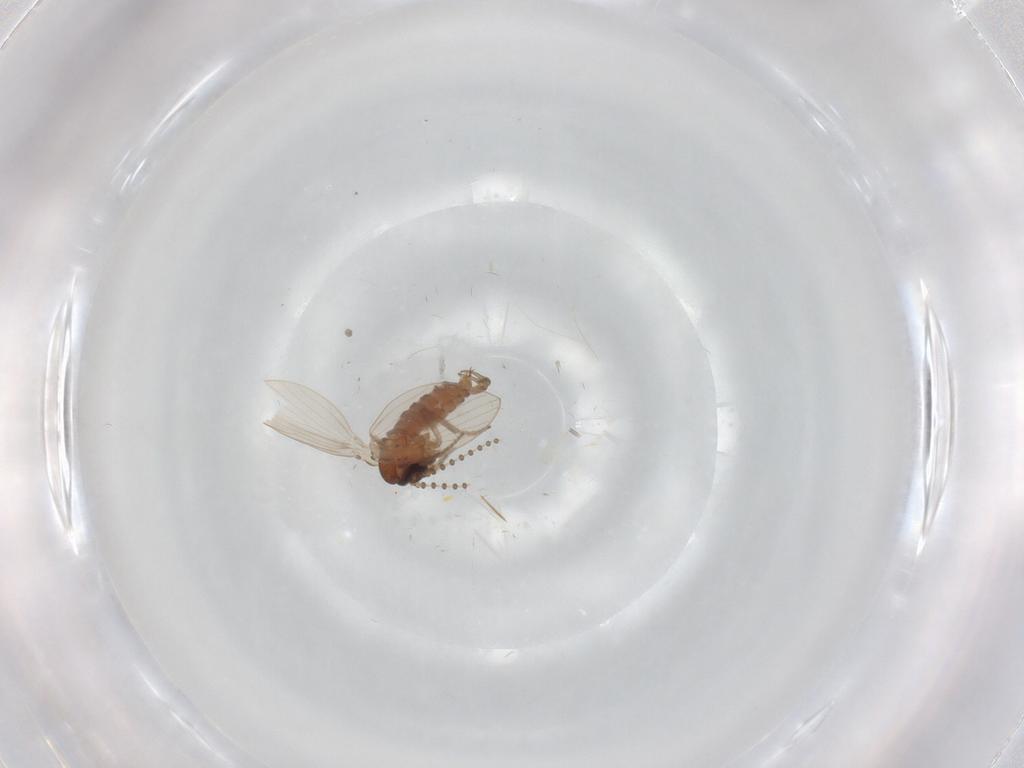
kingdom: Animalia
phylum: Arthropoda
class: Insecta
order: Diptera
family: Psychodidae
